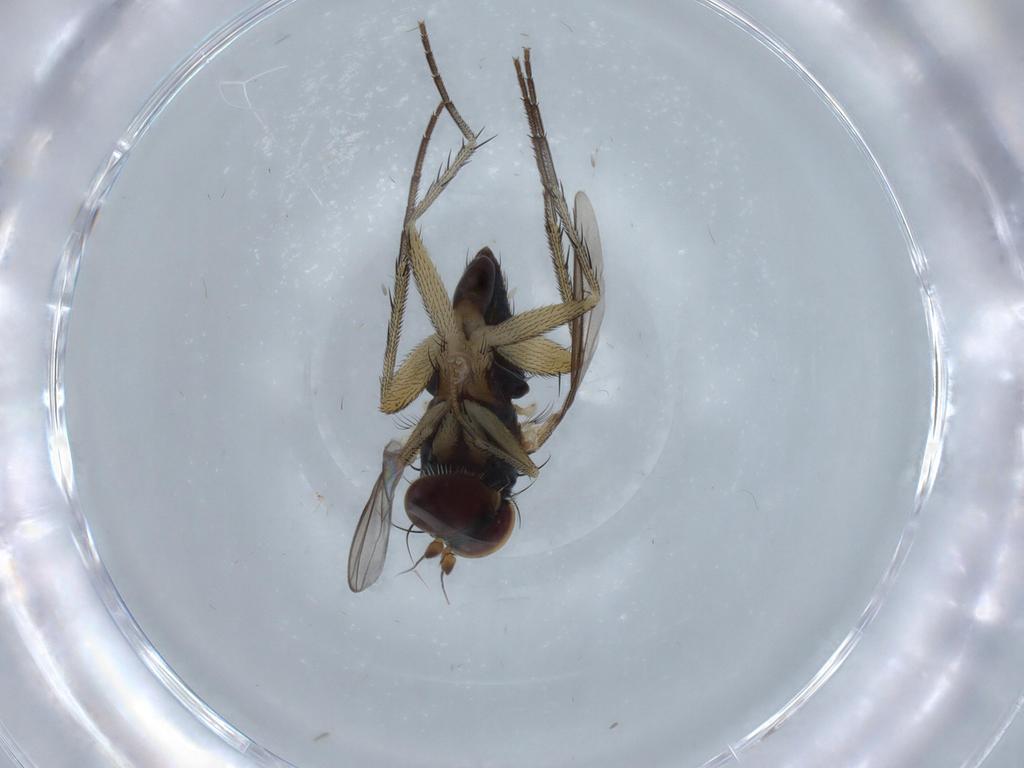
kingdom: Animalia
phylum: Arthropoda
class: Insecta
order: Diptera
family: Dolichopodidae
